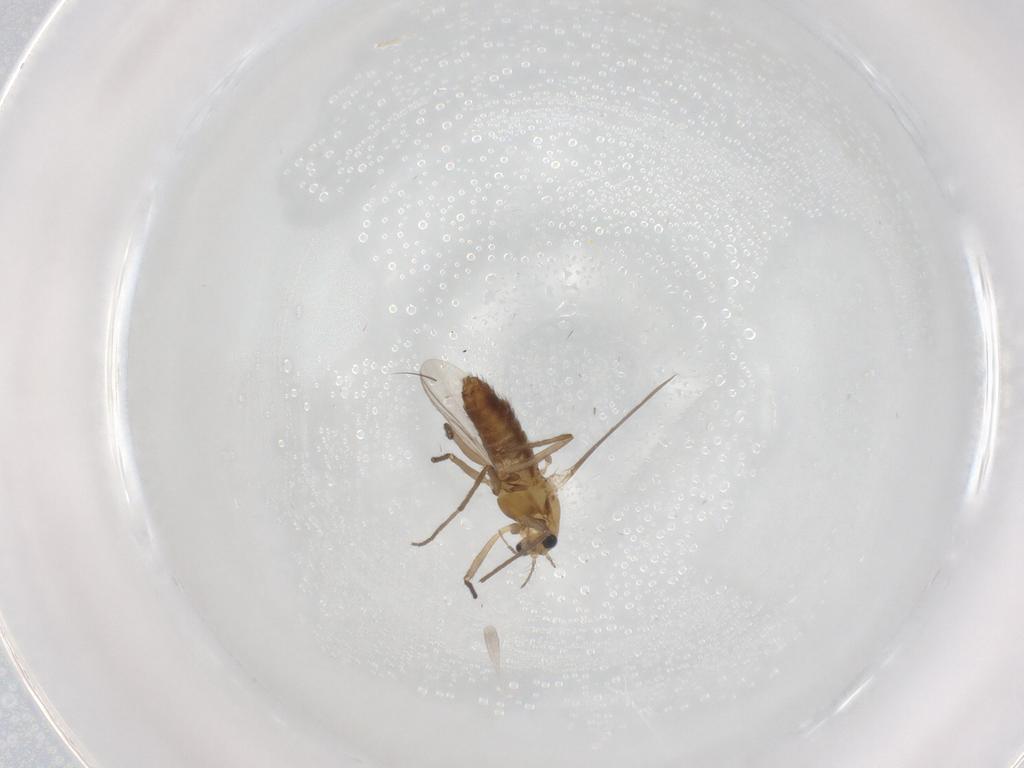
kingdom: Animalia
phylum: Arthropoda
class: Insecta
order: Diptera
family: Chironomidae
